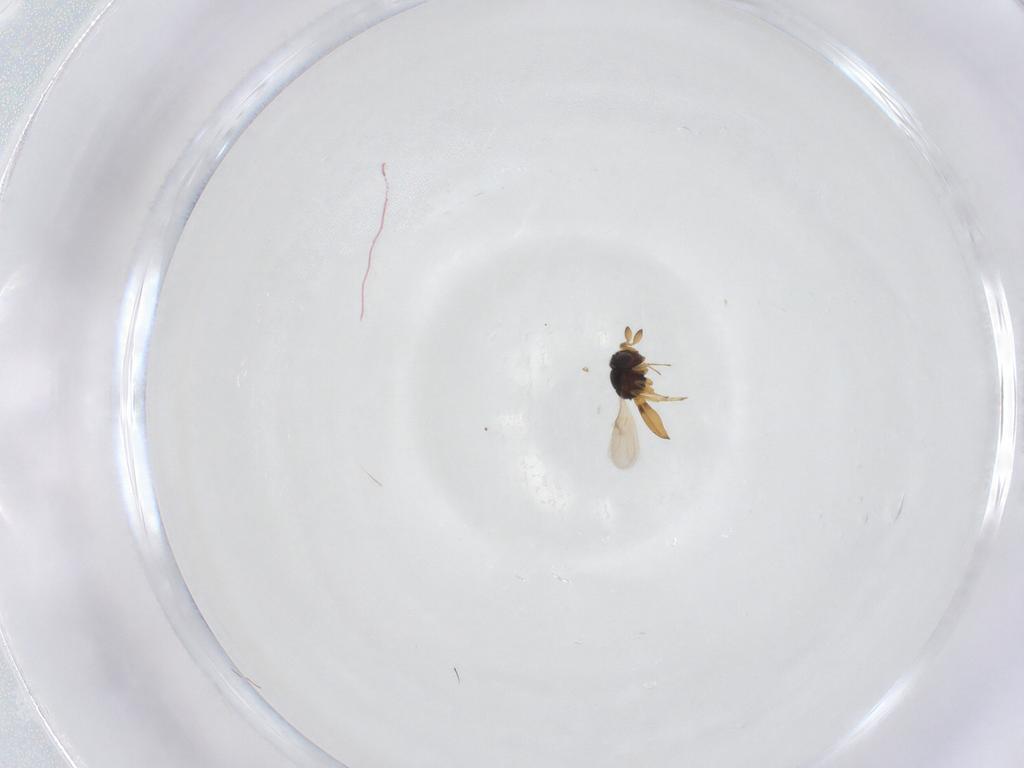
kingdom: Animalia
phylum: Arthropoda
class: Insecta
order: Hymenoptera
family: Scelionidae
